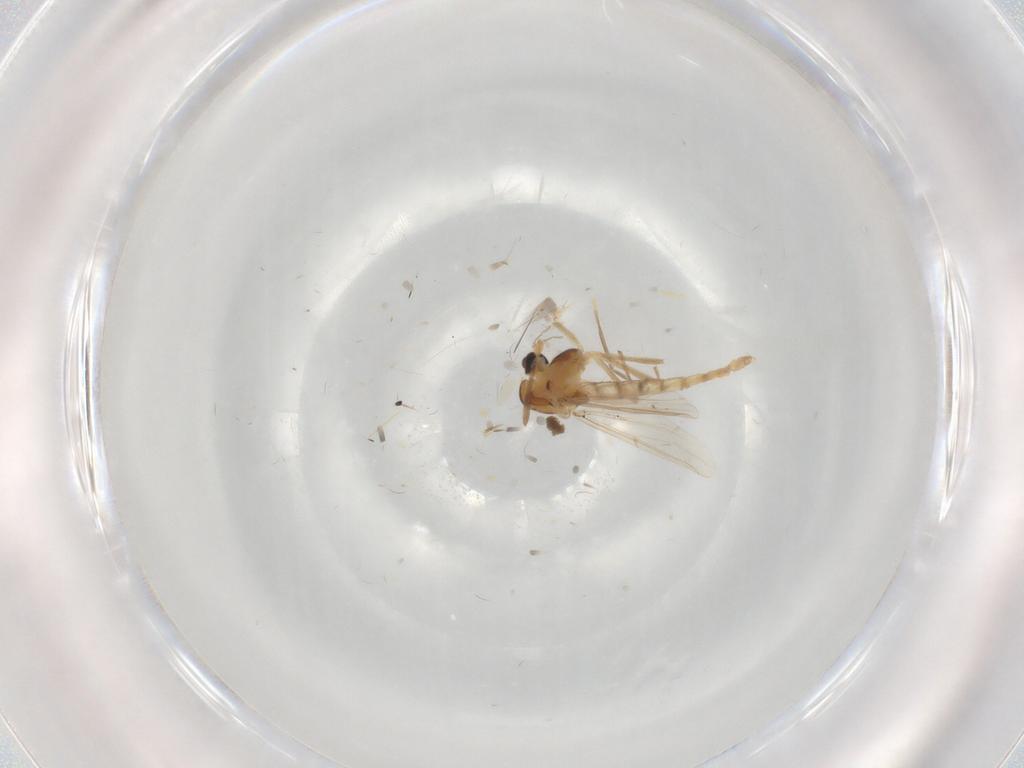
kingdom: Animalia
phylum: Arthropoda
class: Insecta
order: Diptera
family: Chironomidae
